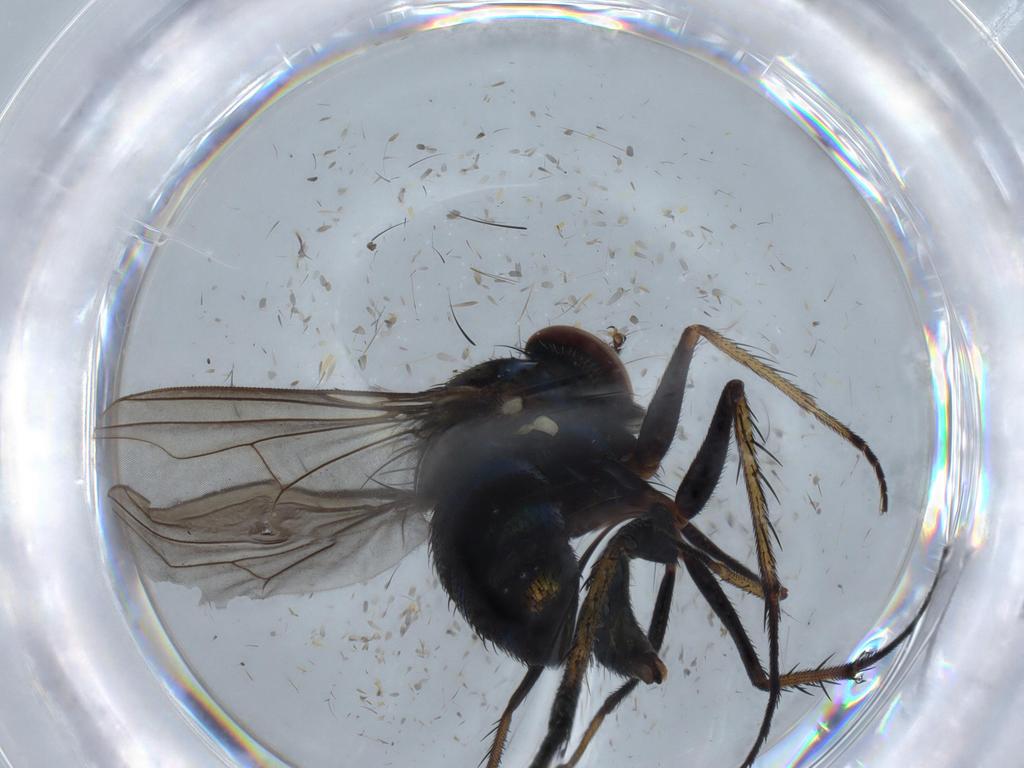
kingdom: Animalia
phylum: Arthropoda
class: Insecta
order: Diptera
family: Dolichopodidae
